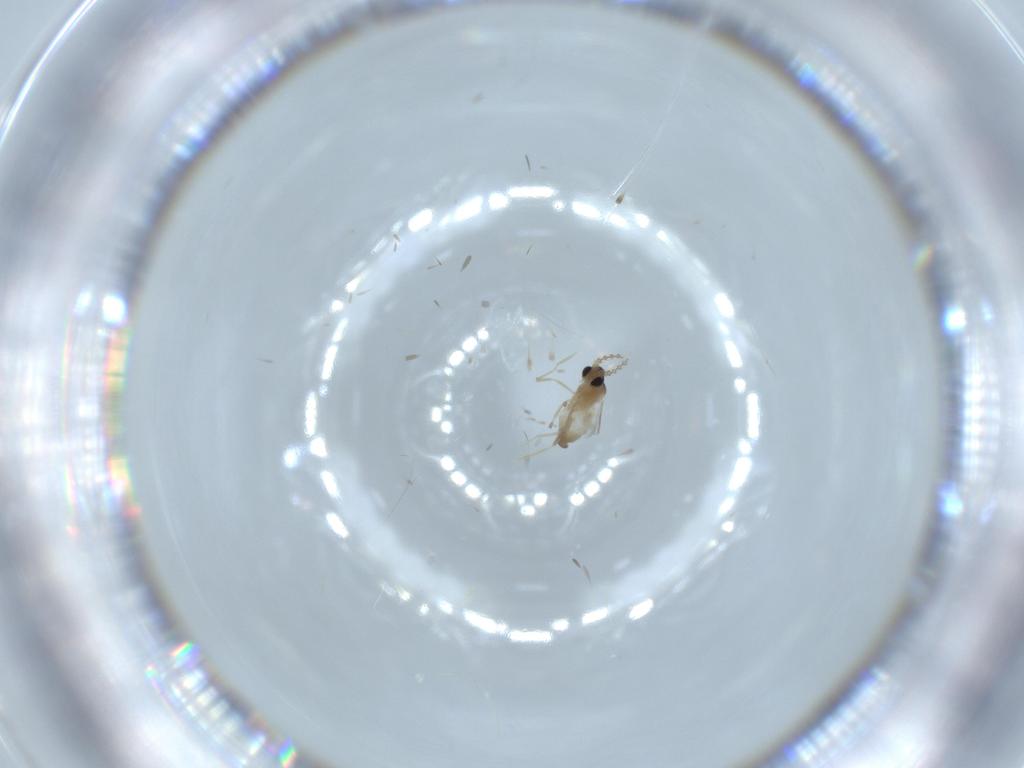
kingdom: Animalia
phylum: Arthropoda
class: Insecta
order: Diptera
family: Cecidomyiidae
